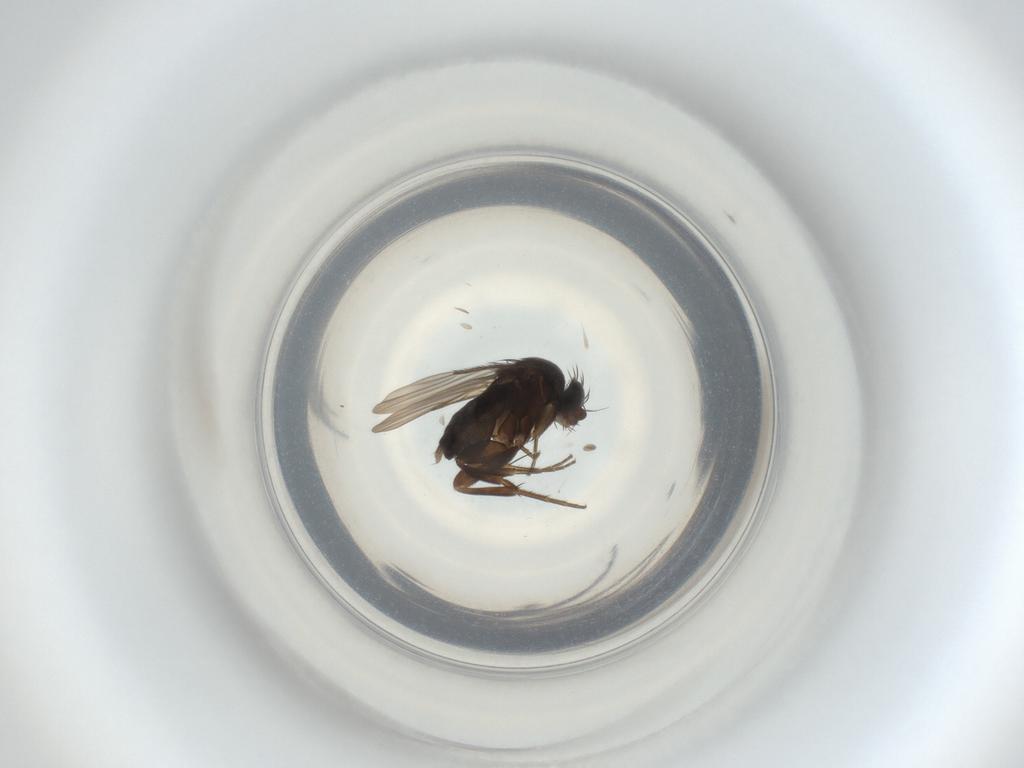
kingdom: Animalia
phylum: Arthropoda
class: Insecta
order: Diptera
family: Phoridae
